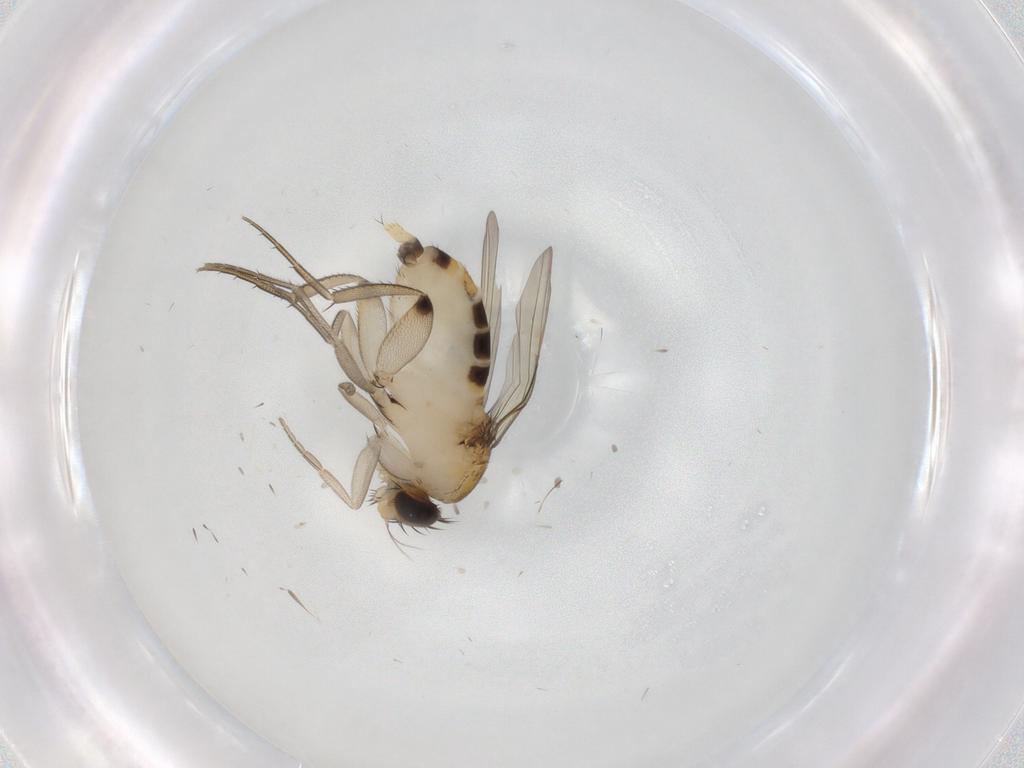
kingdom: Animalia
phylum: Arthropoda
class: Insecta
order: Diptera
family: Phoridae
